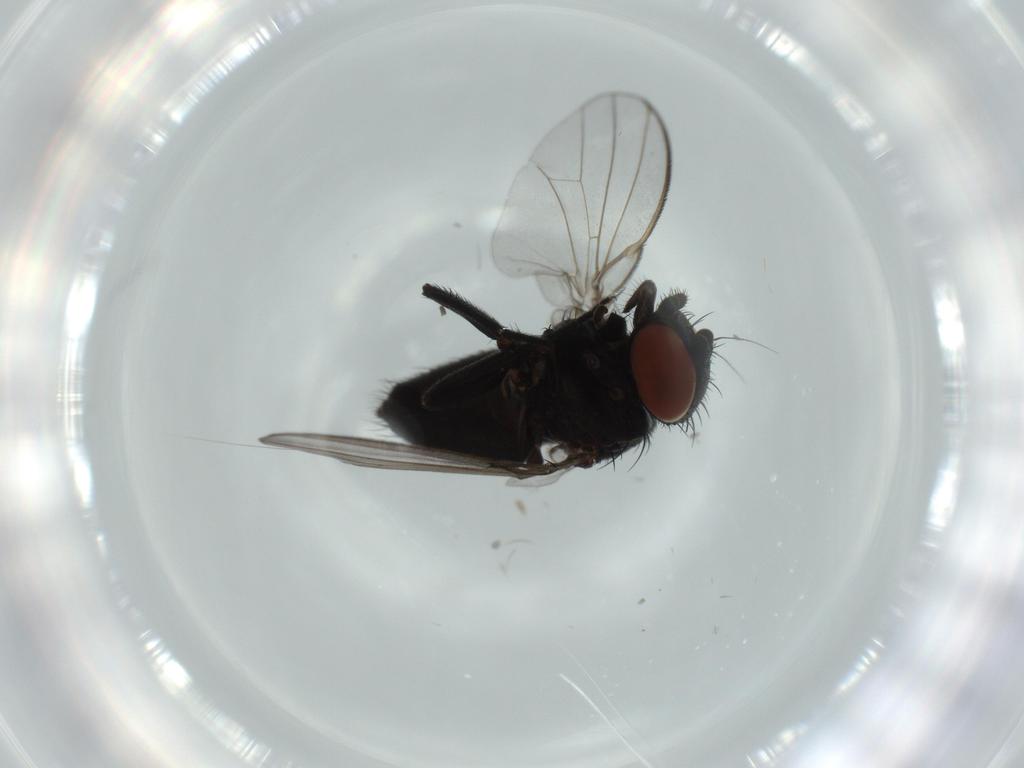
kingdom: Animalia
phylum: Arthropoda
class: Insecta
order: Diptera
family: Milichiidae
